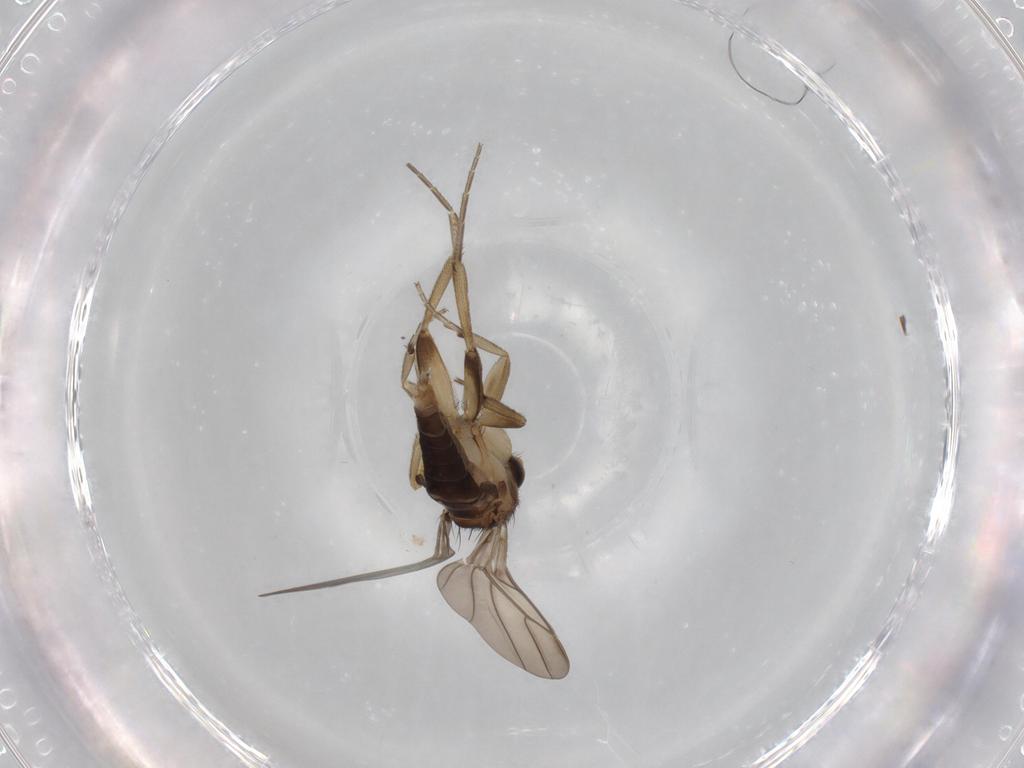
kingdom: Animalia
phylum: Arthropoda
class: Insecta
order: Diptera
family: Phoridae
